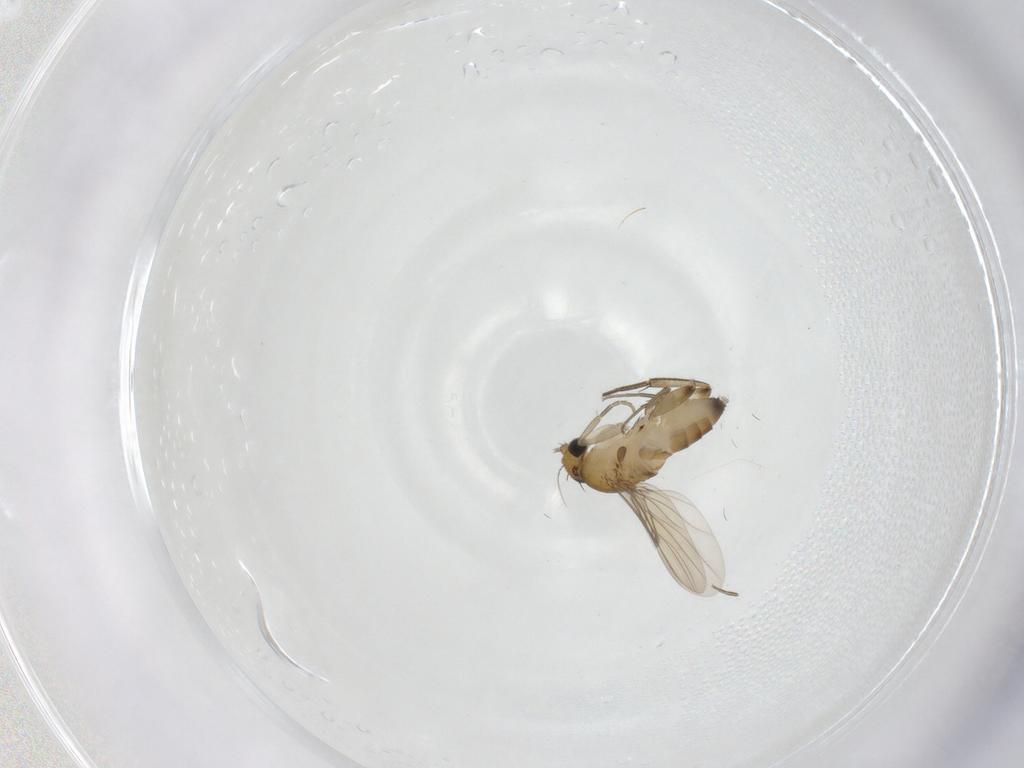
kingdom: Animalia
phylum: Arthropoda
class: Insecta
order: Diptera
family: Phoridae
